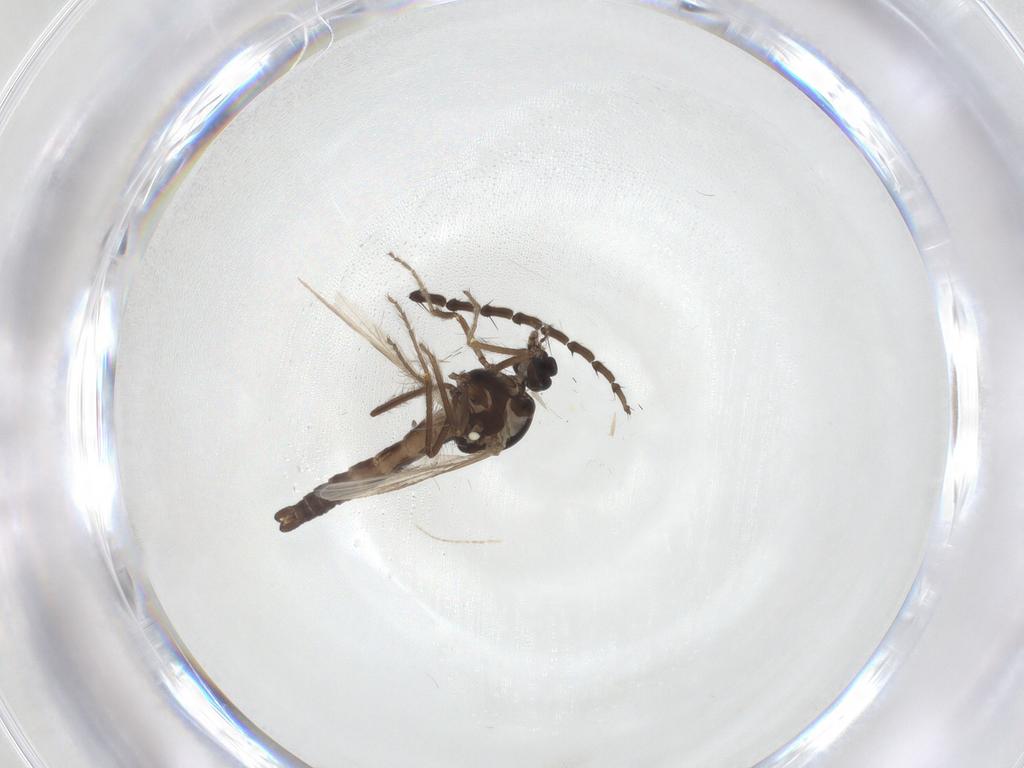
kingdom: Animalia
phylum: Arthropoda
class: Insecta
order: Diptera
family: Ceratopogonidae
